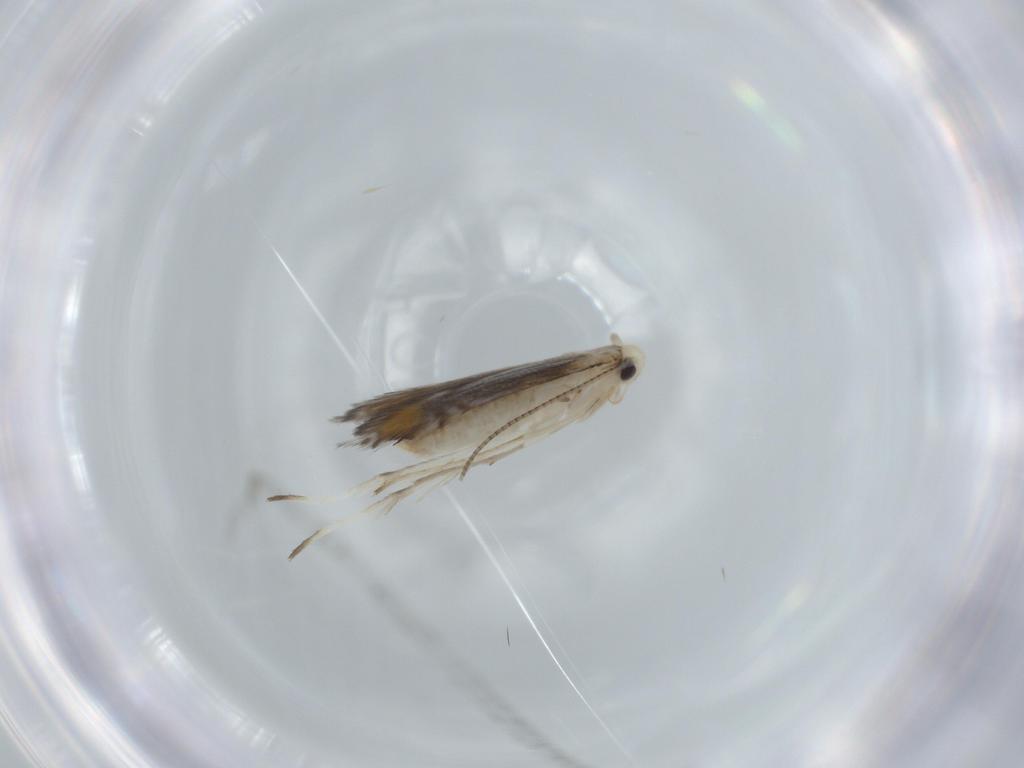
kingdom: Animalia
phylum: Arthropoda
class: Insecta
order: Lepidoptera
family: Nepticulidae
